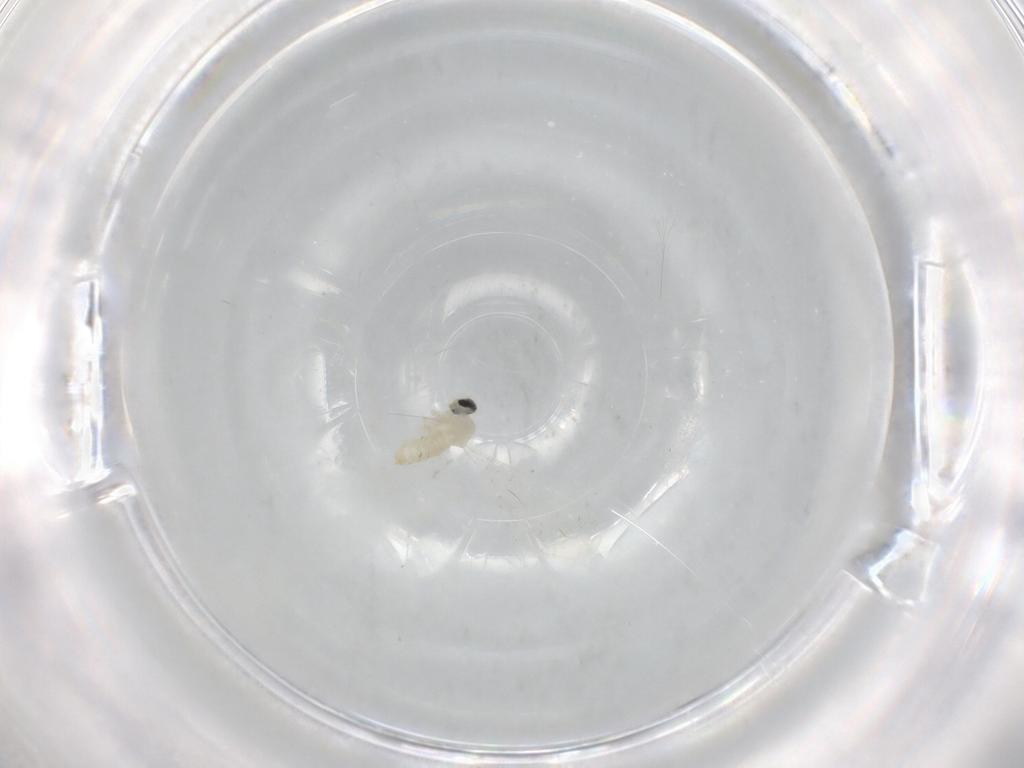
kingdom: Animalia
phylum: Arthropoda
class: Insecta
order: Diptera
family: Cecidomyiidae
